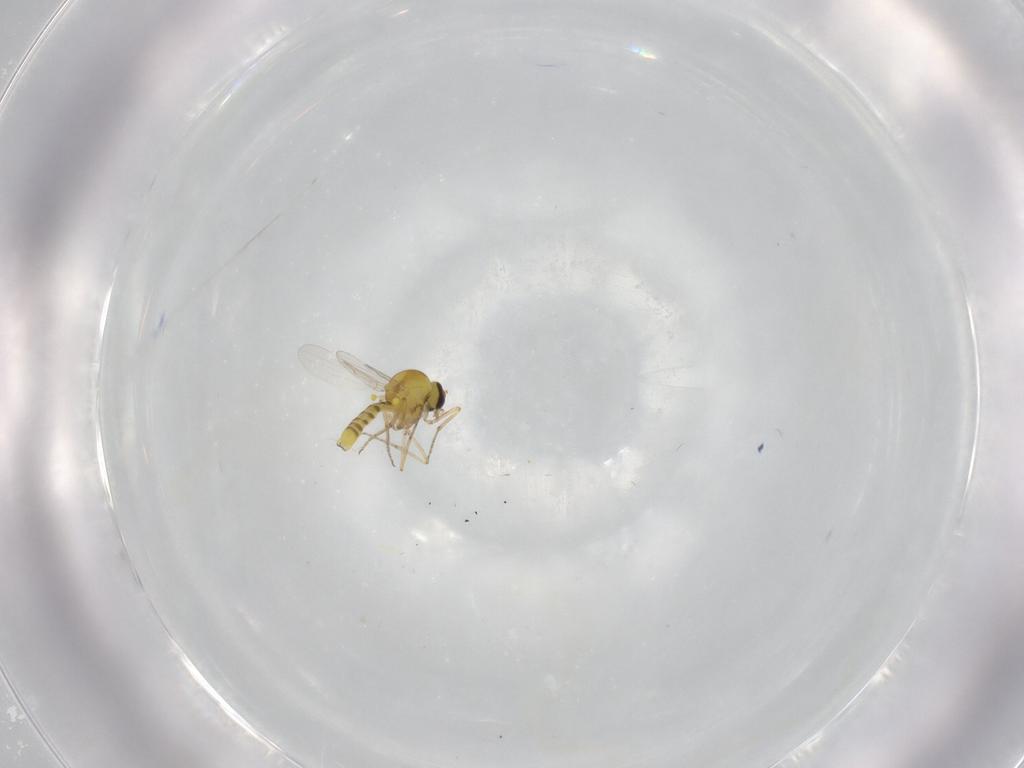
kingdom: Animalia
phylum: Arthropoda
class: Insecta
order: Diptera
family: Ceratopogonidae
